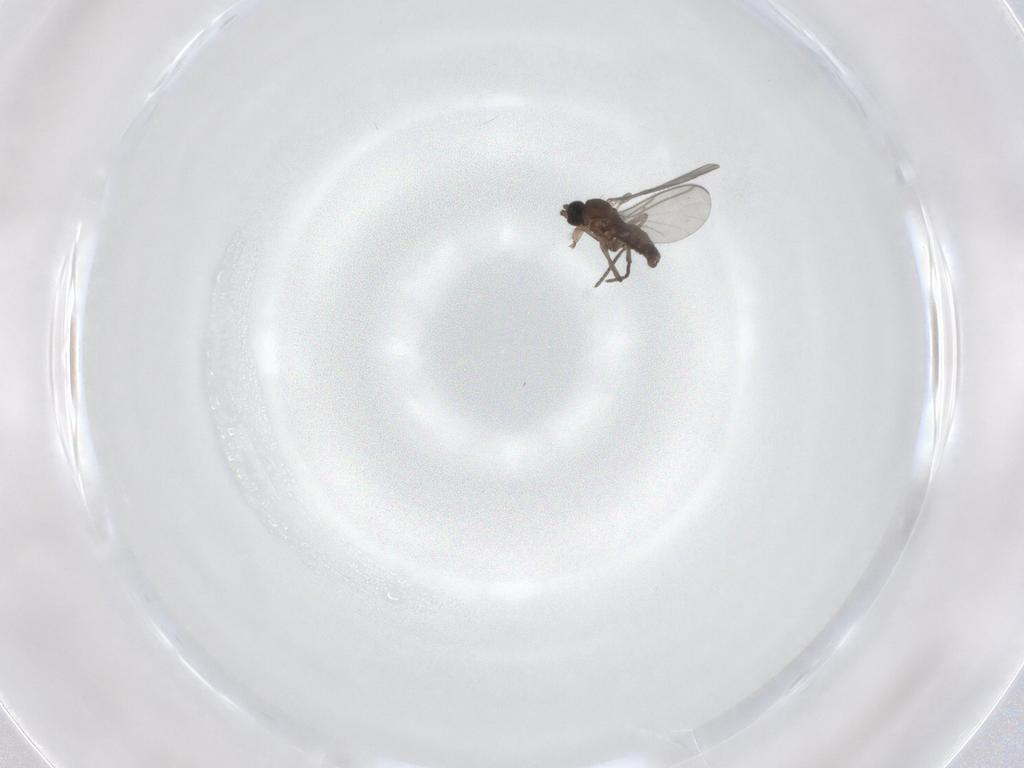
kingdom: Animalia
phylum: Arthropoda
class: Insecta
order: Diptera
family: Limoniidae
